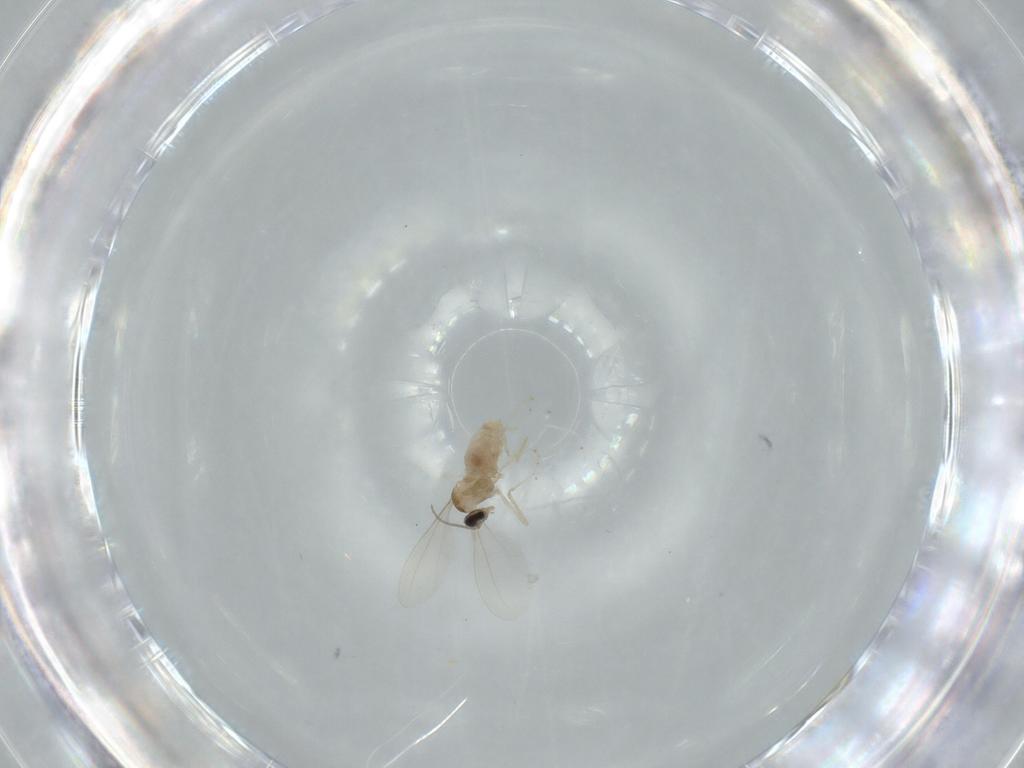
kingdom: Animalia
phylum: Arthropoda
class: Insecta
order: Diptera
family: Cecidomyiidae
